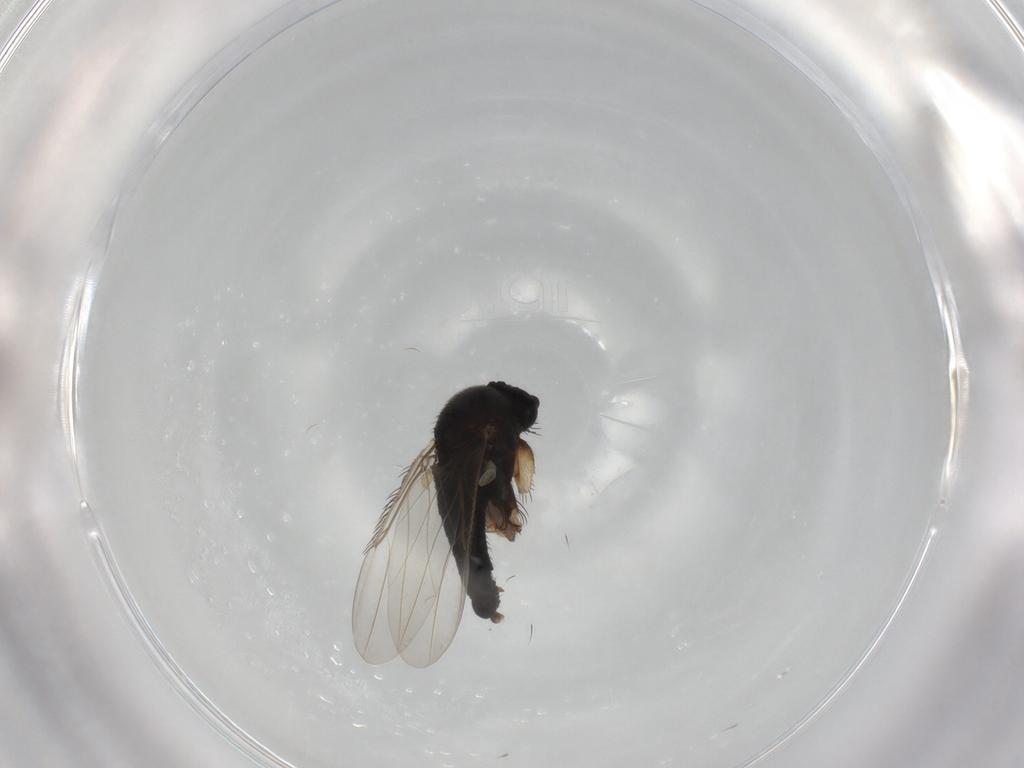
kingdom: Animalia
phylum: Arthropoda
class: Insecta
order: Diptera
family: Phoridae
